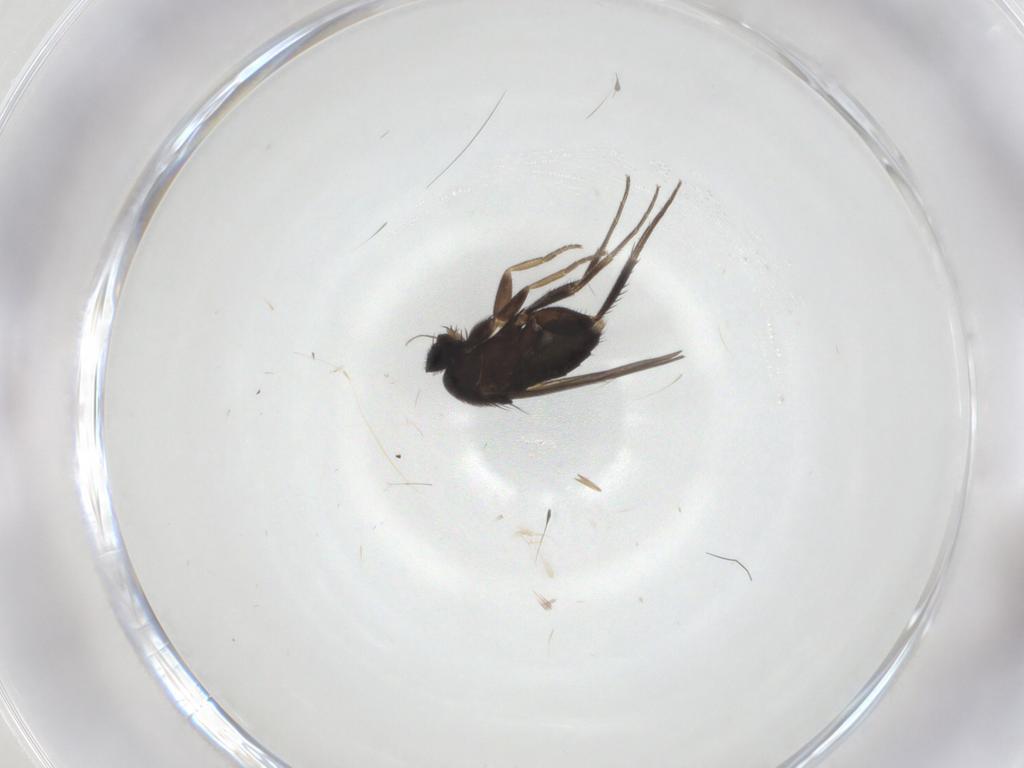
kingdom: Animalia
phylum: Arthropoda
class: Insecta
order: Diptera
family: Phoridae
